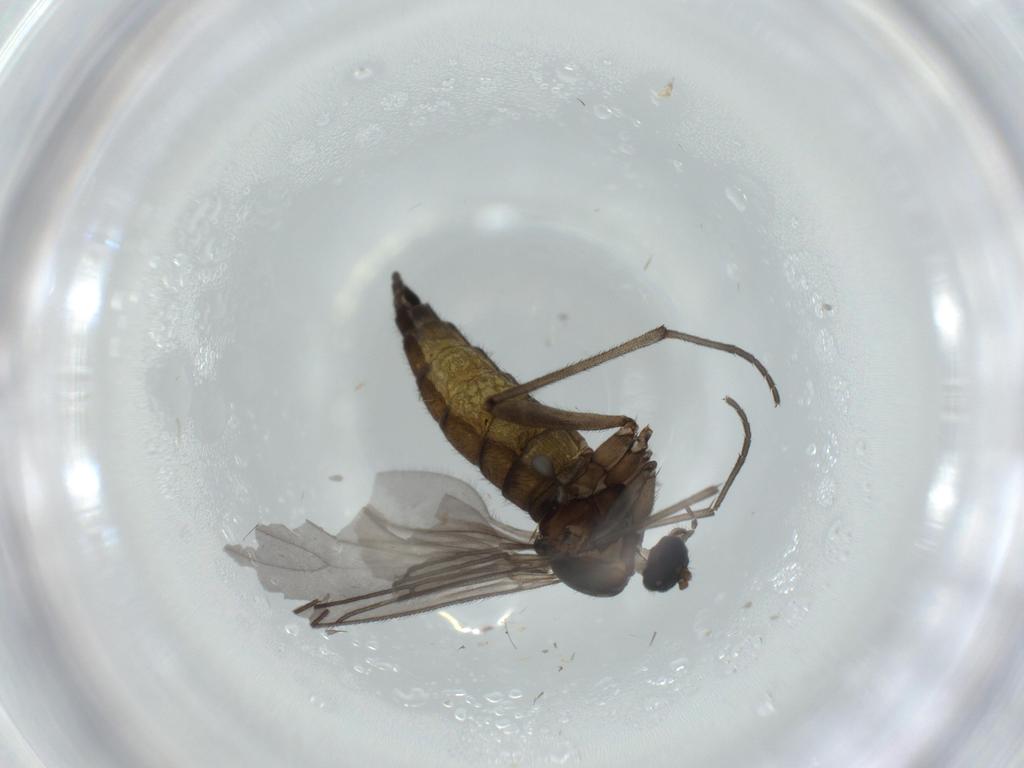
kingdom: Animalia
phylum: Arthropoda
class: Insecta
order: Diptera
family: Sciaridae
